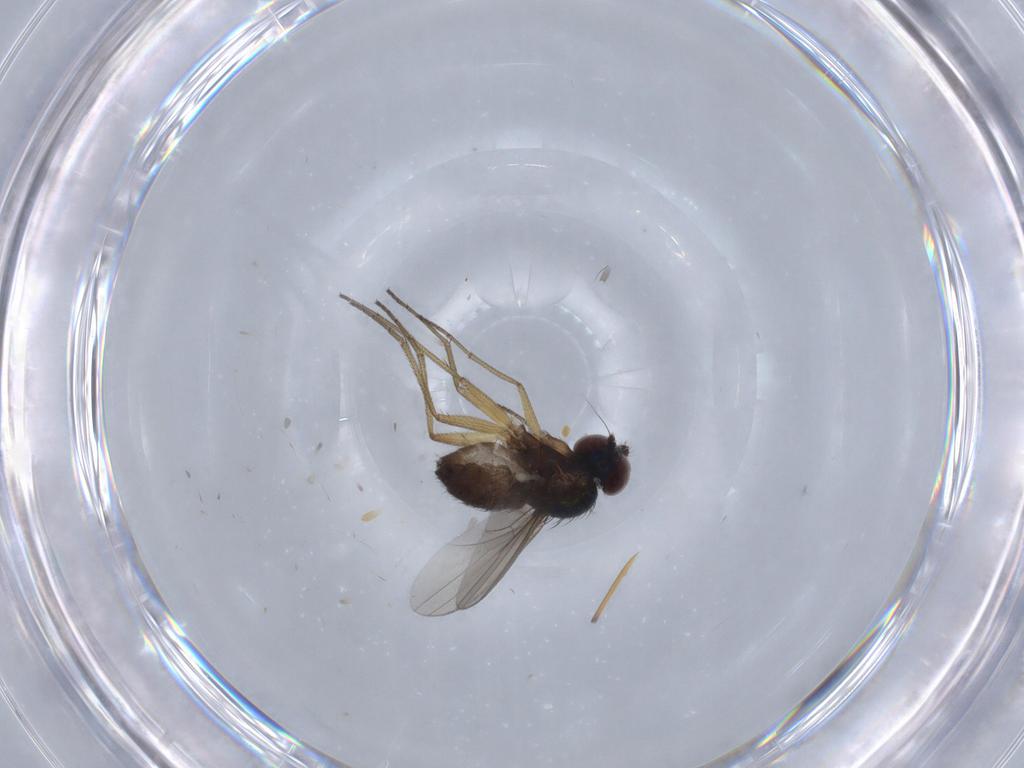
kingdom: Animalia
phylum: Arthropoda
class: Insecta
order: Diptera
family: Dolichopodidae
